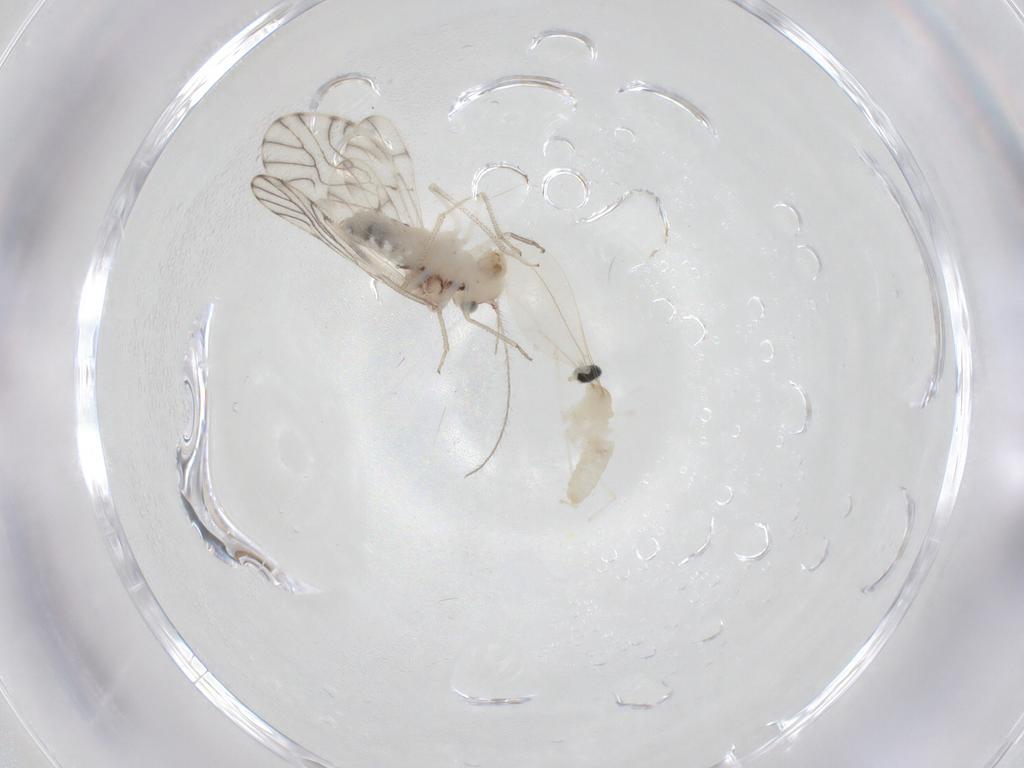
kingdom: Animalia
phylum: Arthropoda
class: Insecta
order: Diptera
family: Cecidomyiidae
